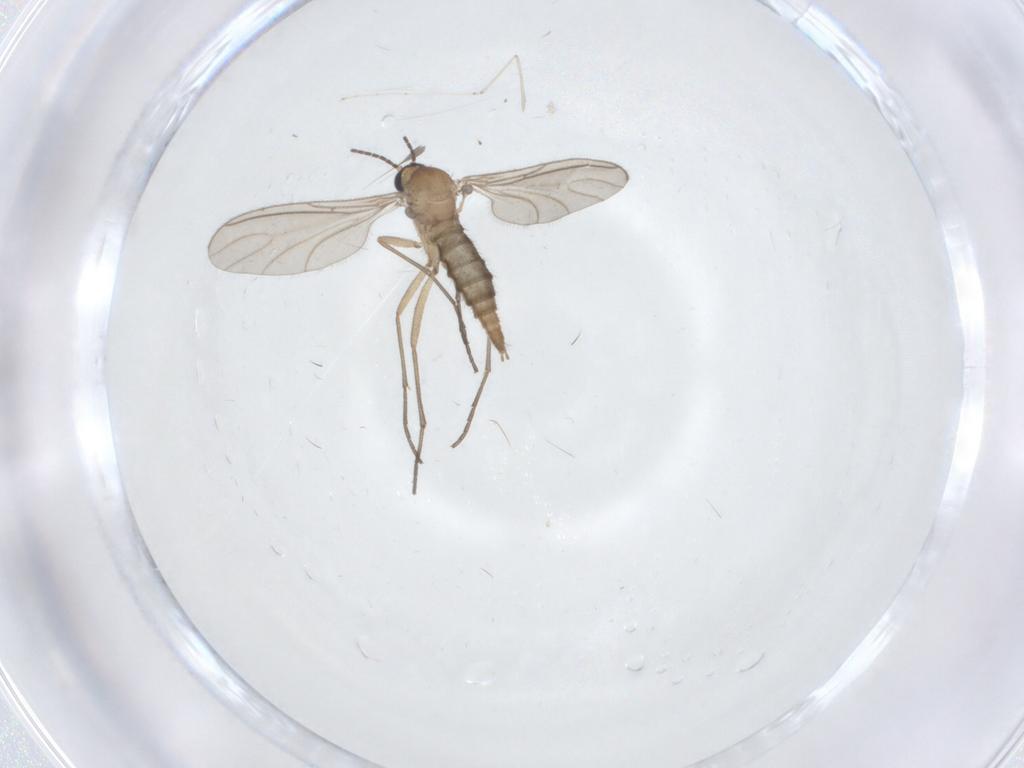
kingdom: Animalia
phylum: Arthropoda
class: Insecta
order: Diptera
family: Sciaridae
